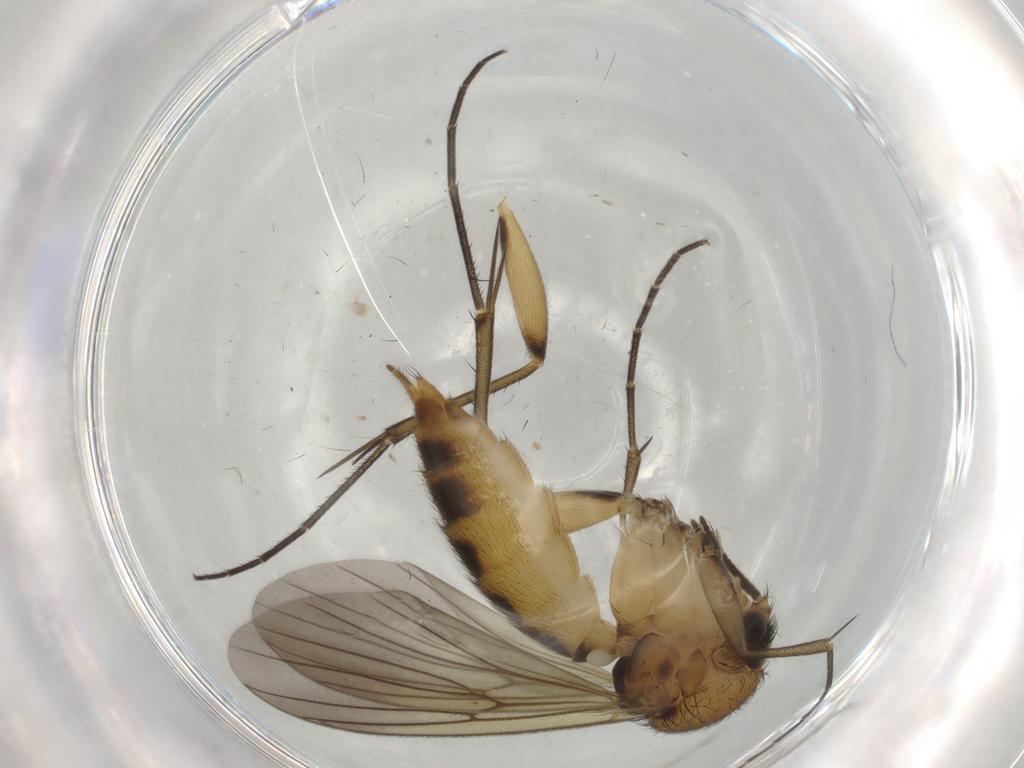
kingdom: Animalia
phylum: Arthropoda
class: Insecta
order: Diptera
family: Mycetophilidae
